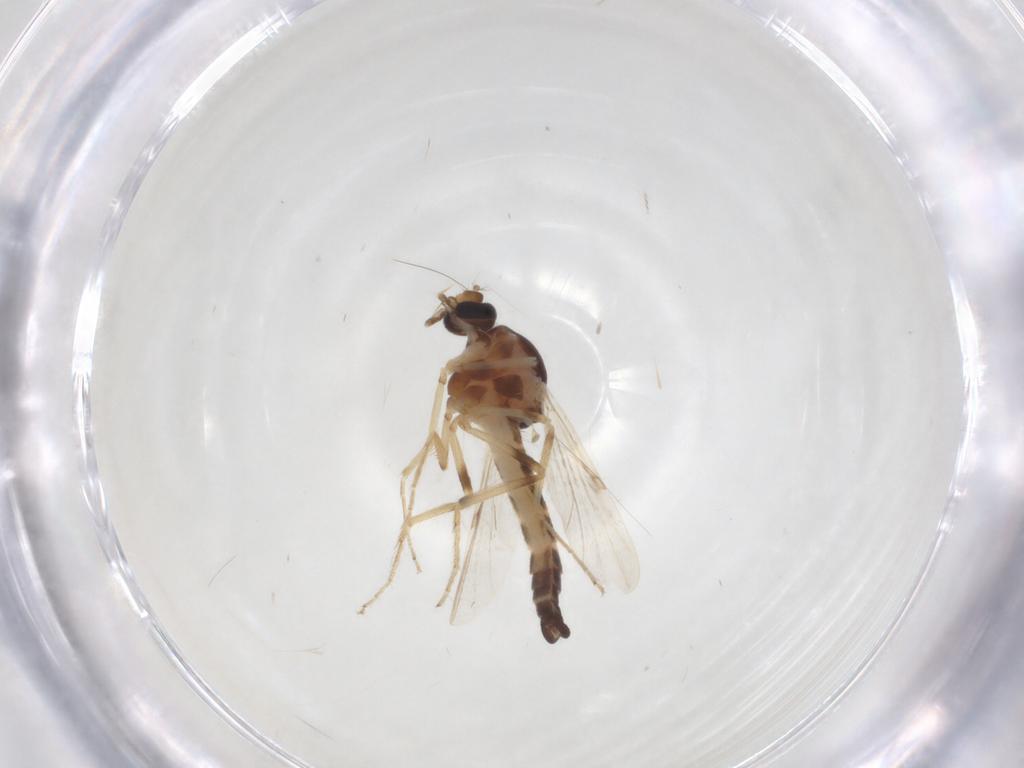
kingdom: Animalia
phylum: Arthropoda
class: Insecta
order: Diptera
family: Ceratopogonidae
